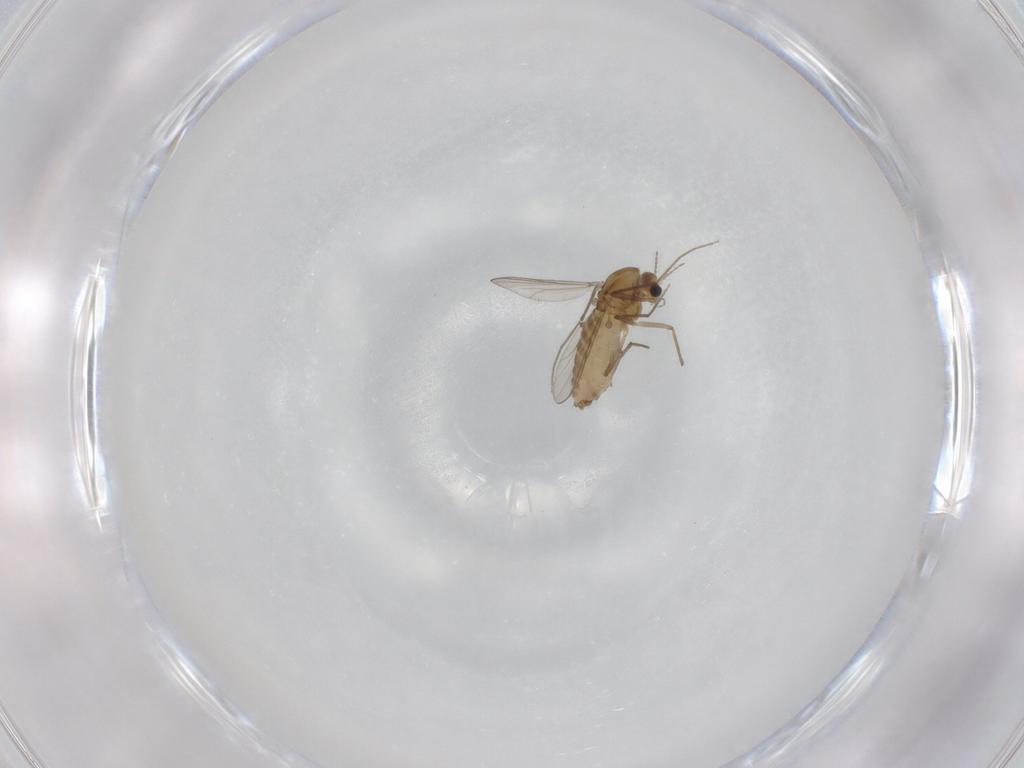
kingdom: Animalia
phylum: Arthropoda
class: Insecta
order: Diptera
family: Chironomidae
